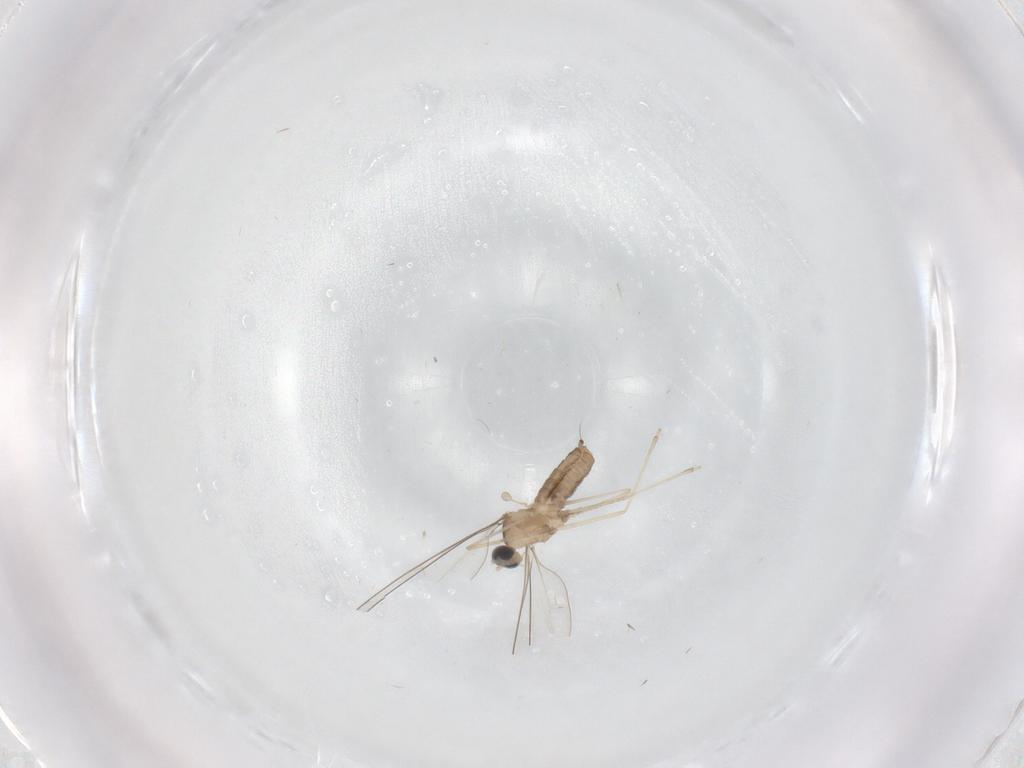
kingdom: Animalia
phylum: Arthropoda
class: Insecta
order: Diptera
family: Cecidomyiidae
